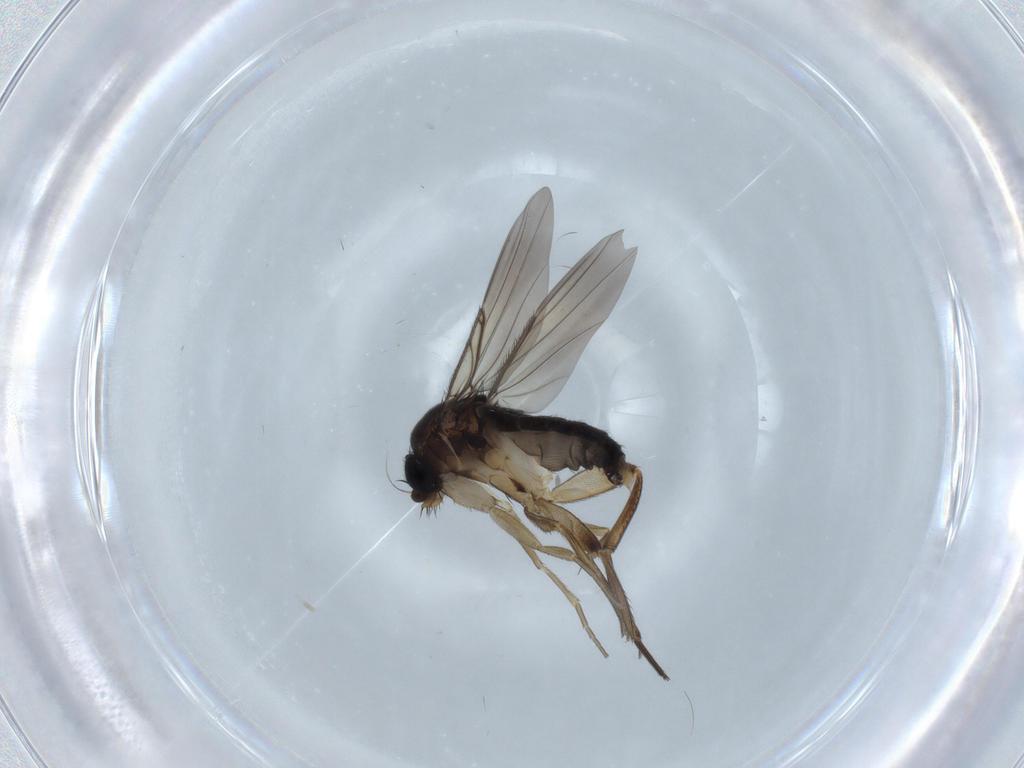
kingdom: Animalia
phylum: Arthropoda
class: Insecta
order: Diptera
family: Phoridae
